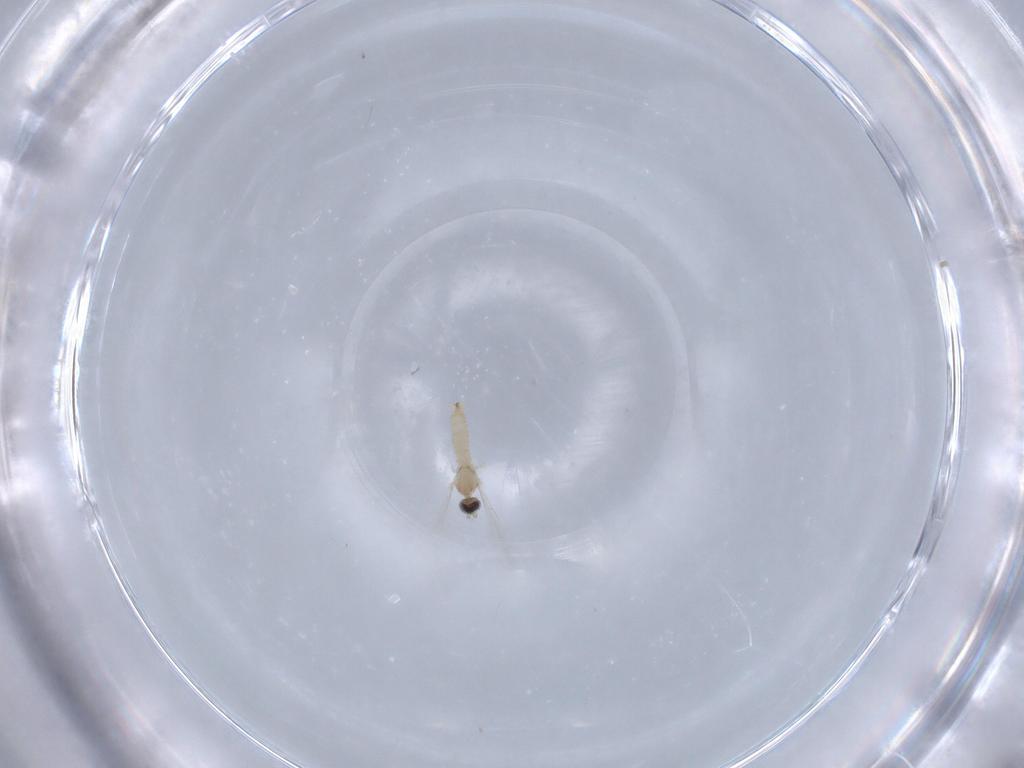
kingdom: Animalia
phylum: Arthropoda
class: Insecta
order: Diptera
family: Cecidomyiidae
